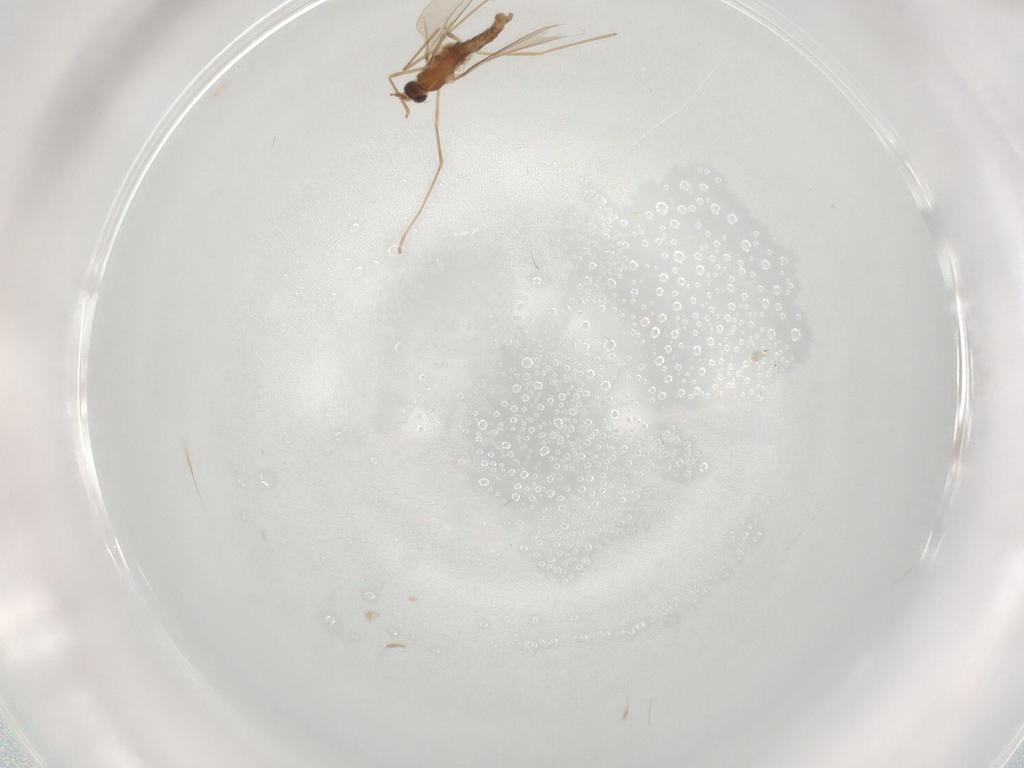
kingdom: Animalia
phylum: Arthropoda
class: Insecta
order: Diptera
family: Cecidomyiidae
